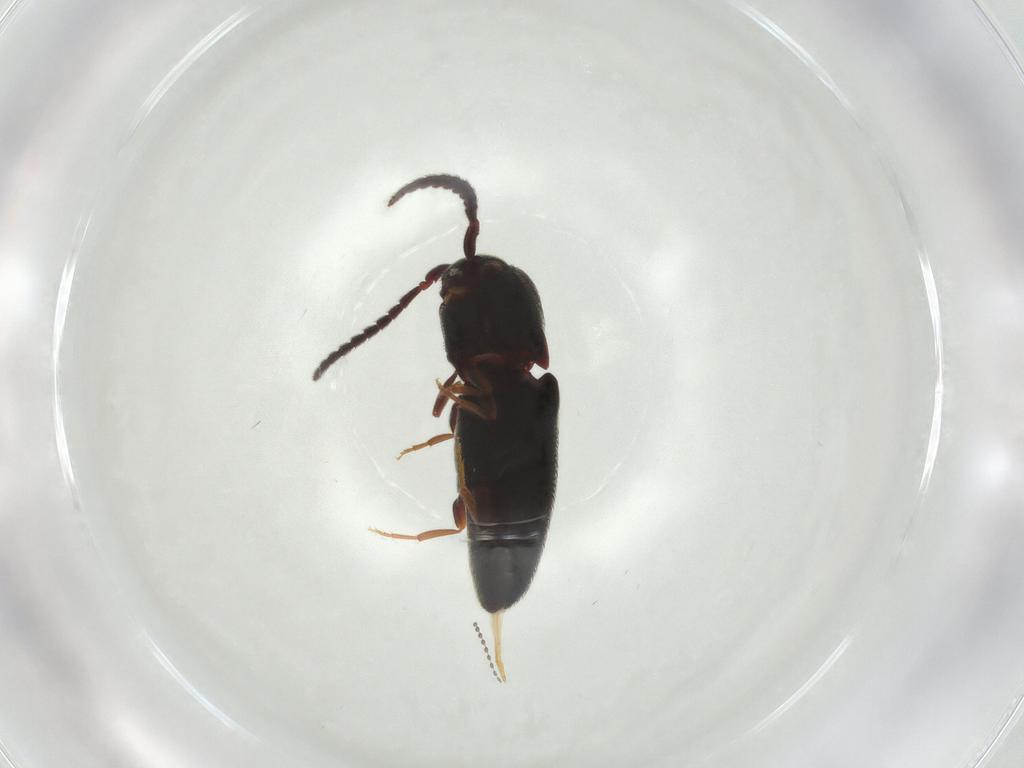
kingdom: Animalia
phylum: Arthropoda
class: Insecta
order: Coleoptera
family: Eucnemidae
